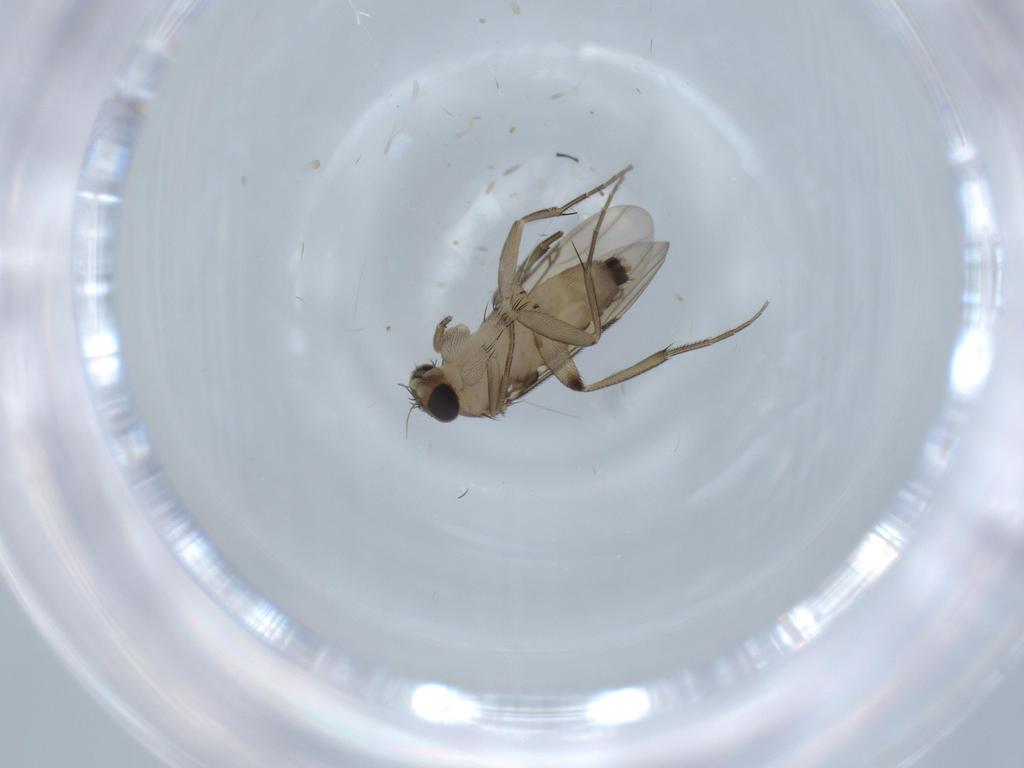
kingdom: Animalia
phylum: Arthropoda
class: Insecta
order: Diptera
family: Phoridae
